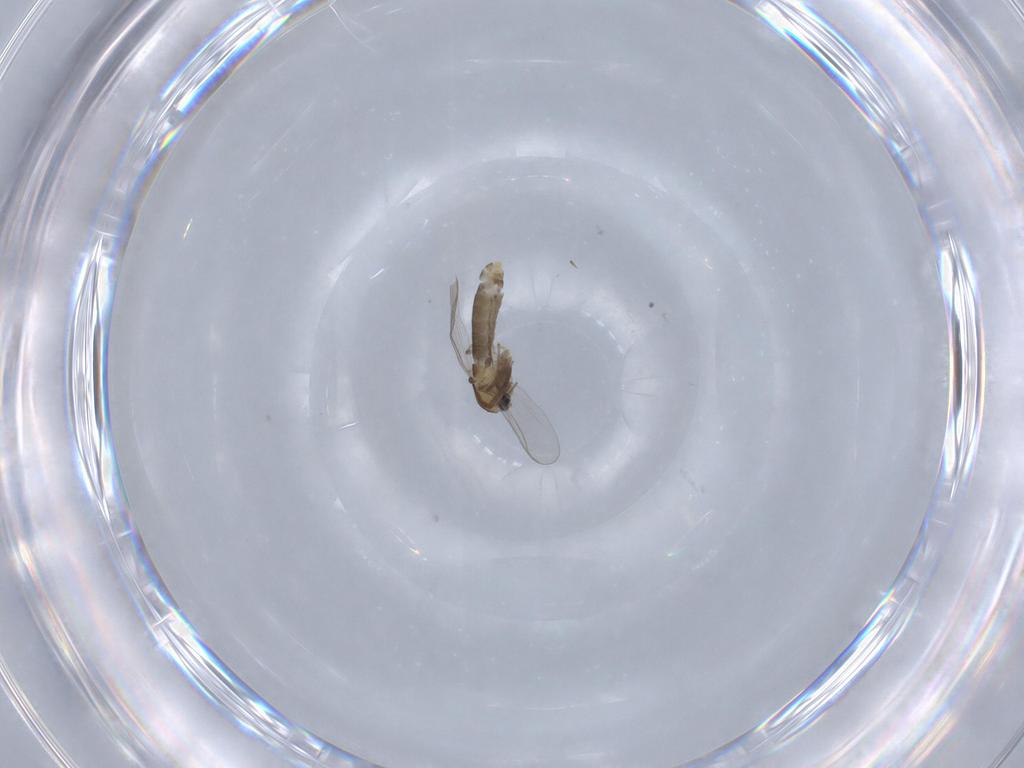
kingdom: Animalia
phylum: Arthropoda
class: Insecta
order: Diptera
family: Chironomidae
